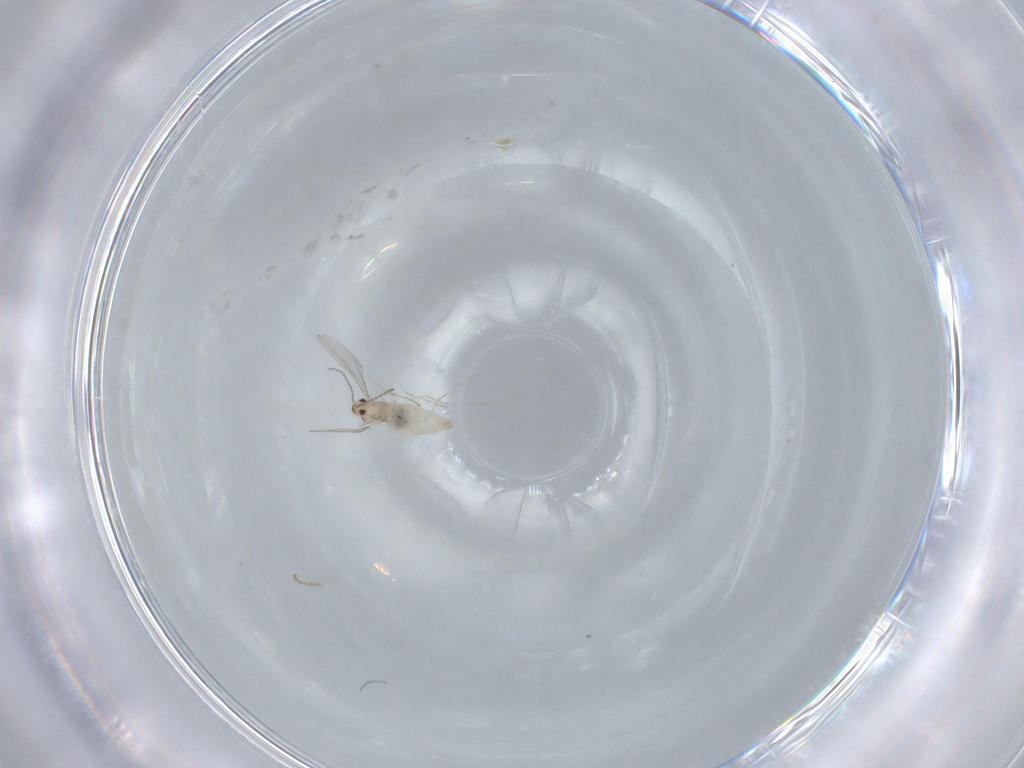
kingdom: Animalia
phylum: Arthropoda
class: Insecta
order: Diptera
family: Cecidomyiidae
